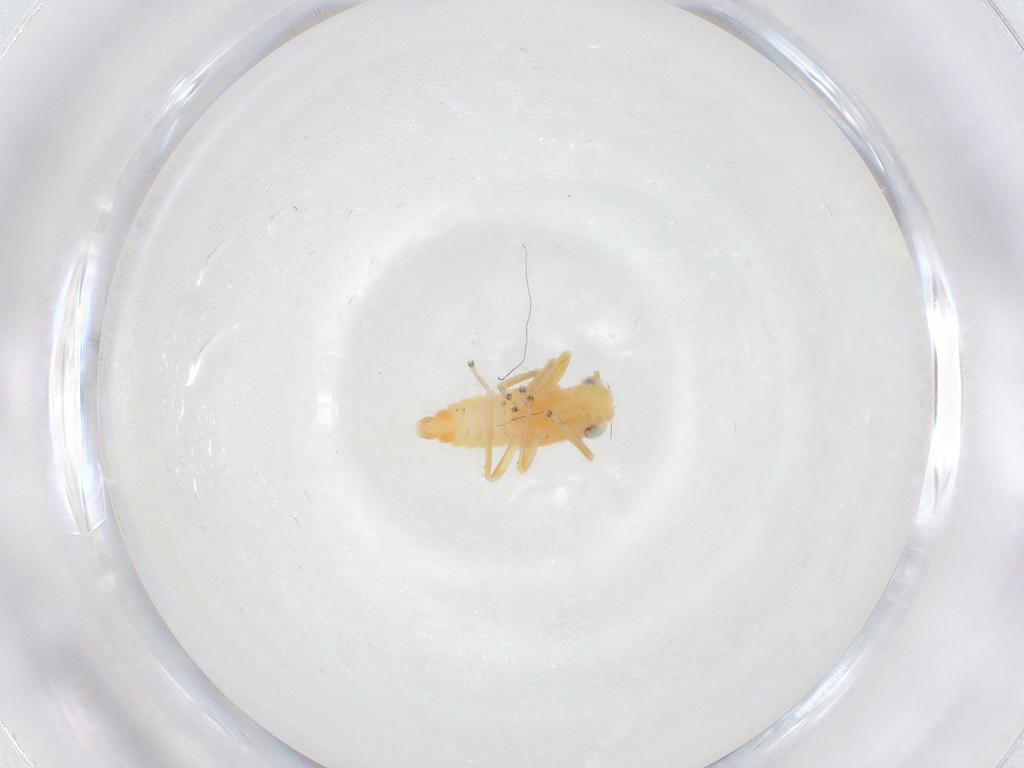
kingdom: Animalia
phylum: Arthropoda
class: Insecta
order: Hemiptera
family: Cicadellidae
